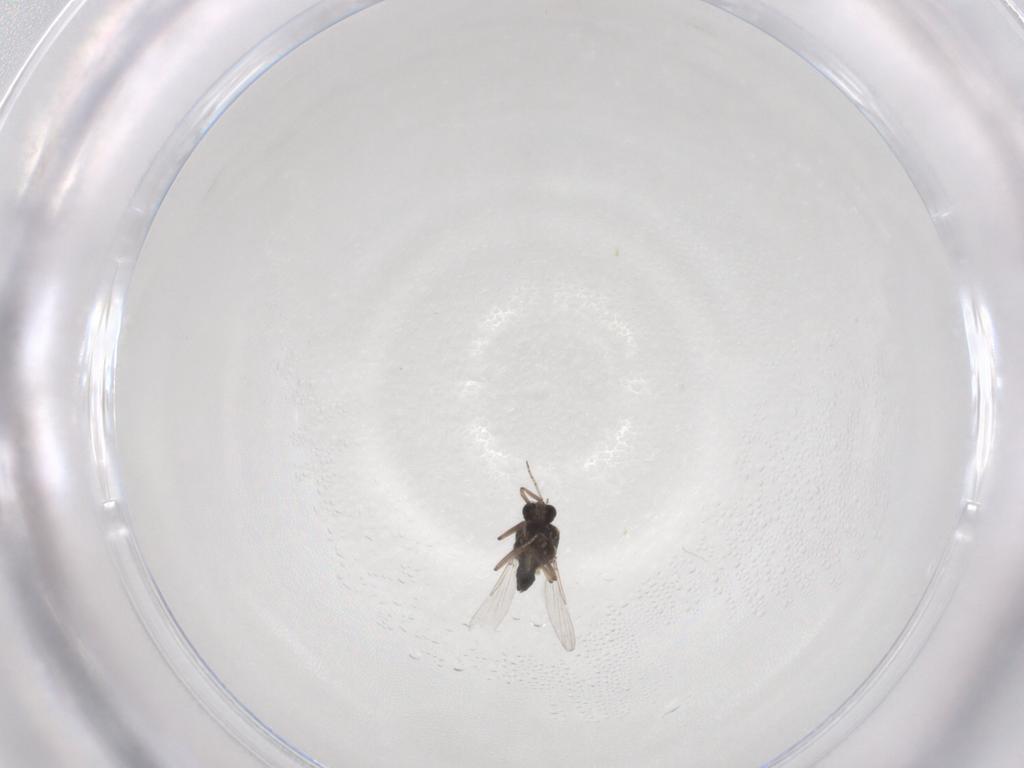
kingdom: Animalia
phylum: Arthropoda
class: Insecta
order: Diptera
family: Ceratopogonidae
